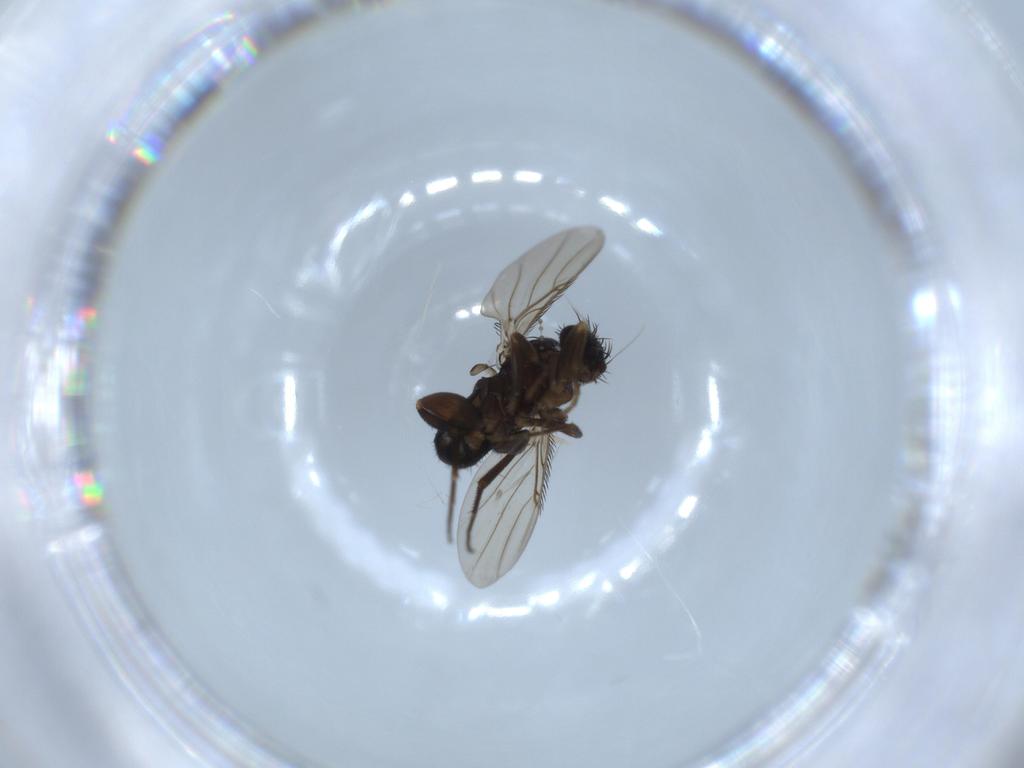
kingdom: Animalia
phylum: Arthropoda
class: Insecta
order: Diptera
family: Phoridae
